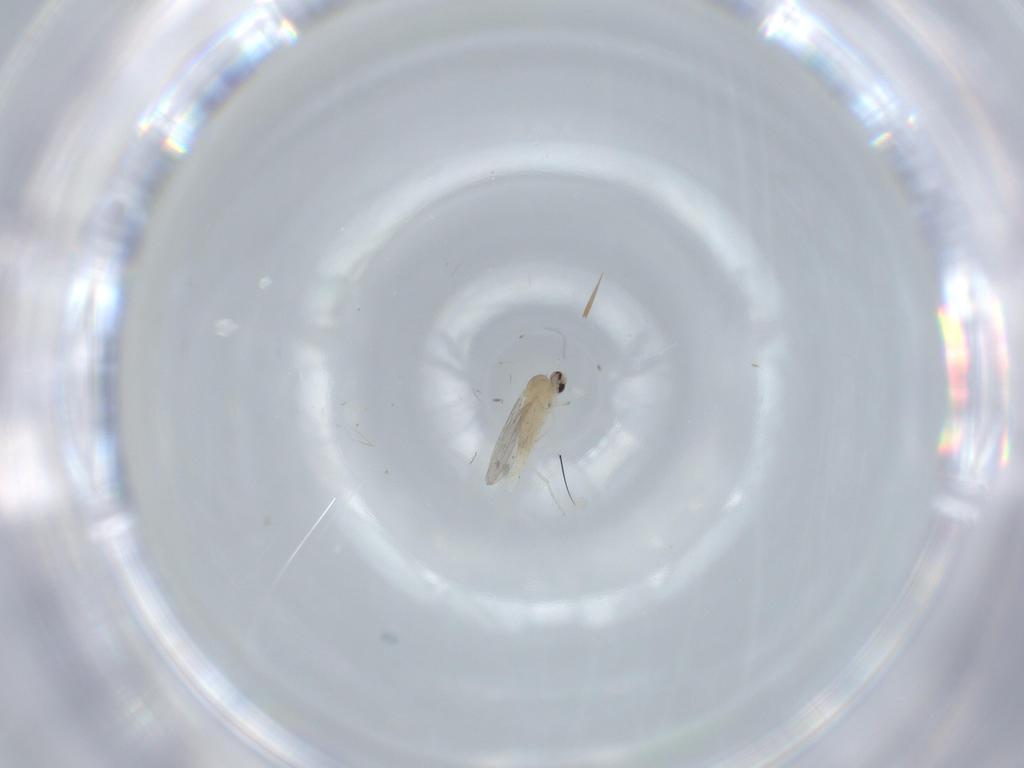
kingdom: Animalia
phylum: Arthropoda
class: Insecta
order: Diptera
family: Cecidomyiidae
